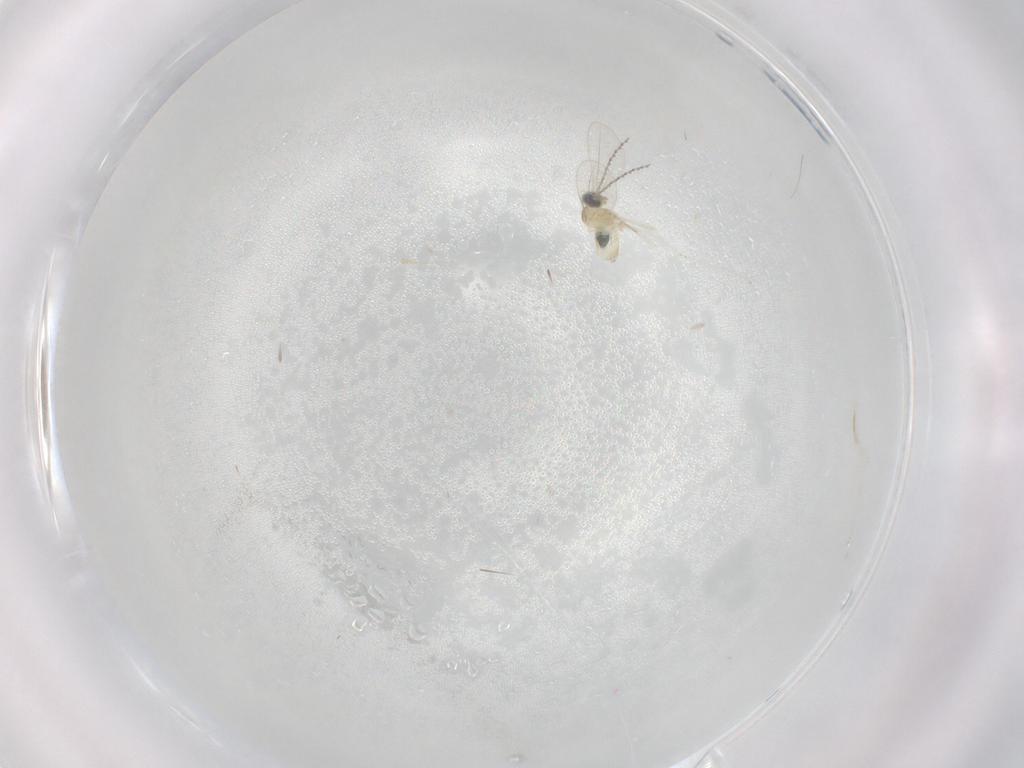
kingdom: Animalia
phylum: Arthropoda
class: Insecta
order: Diptera
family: Cecidomyiidae
